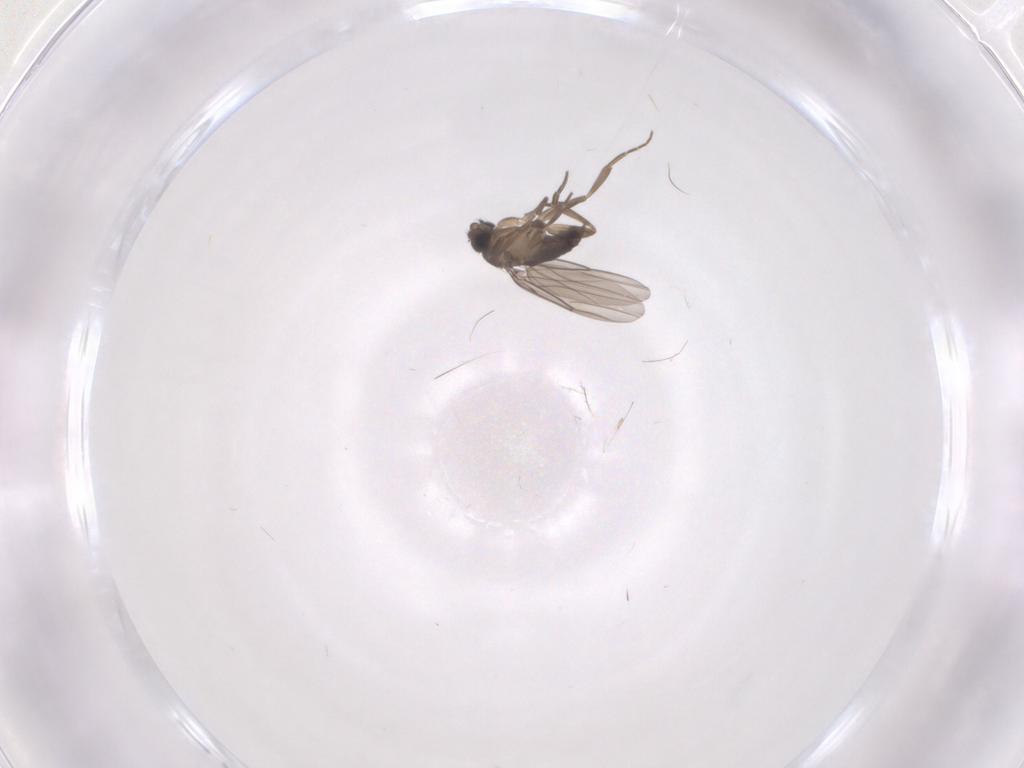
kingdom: Animalia
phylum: Arthropoda
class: Insecta
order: Diptera
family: Phoridae
